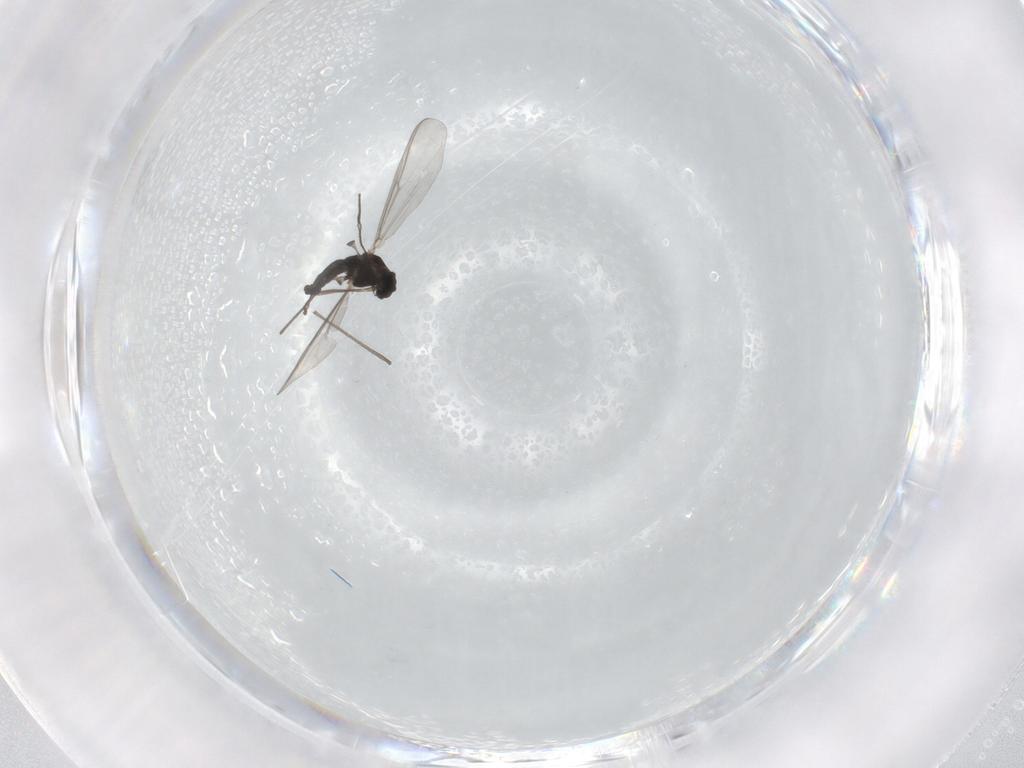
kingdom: Animalia
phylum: Arthropoda
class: Insecta
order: Diptera
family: Chironomidae
